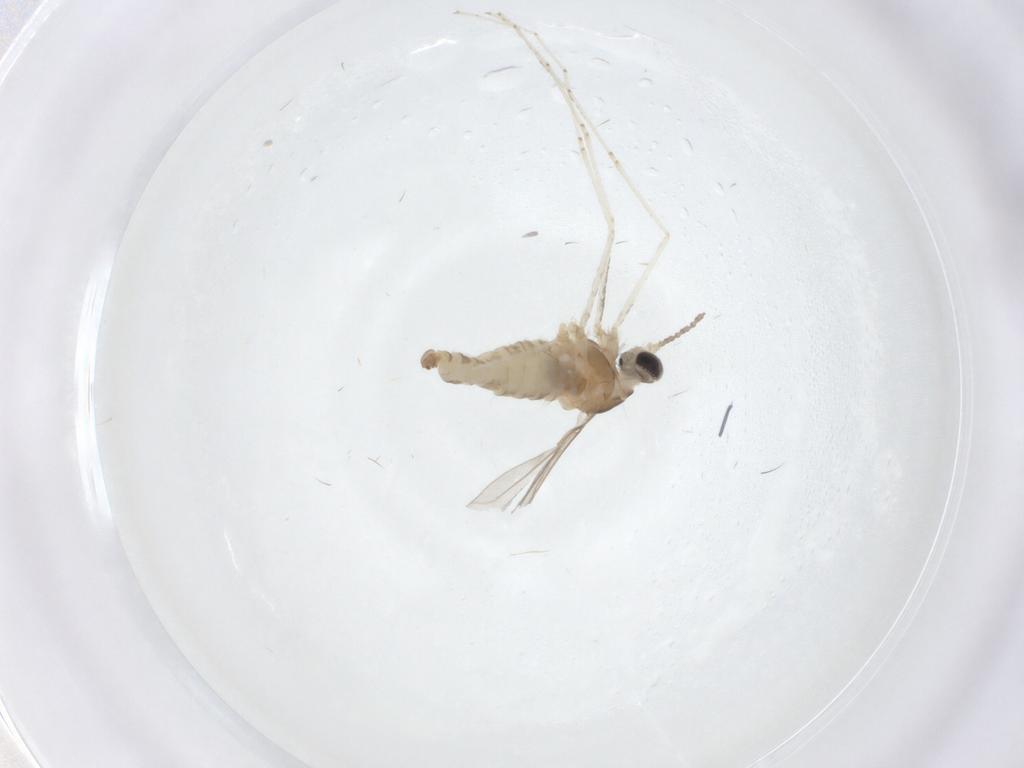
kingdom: Animalia
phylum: Arthropoda
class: Insecta
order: Diptera
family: Cecidomyiidae
